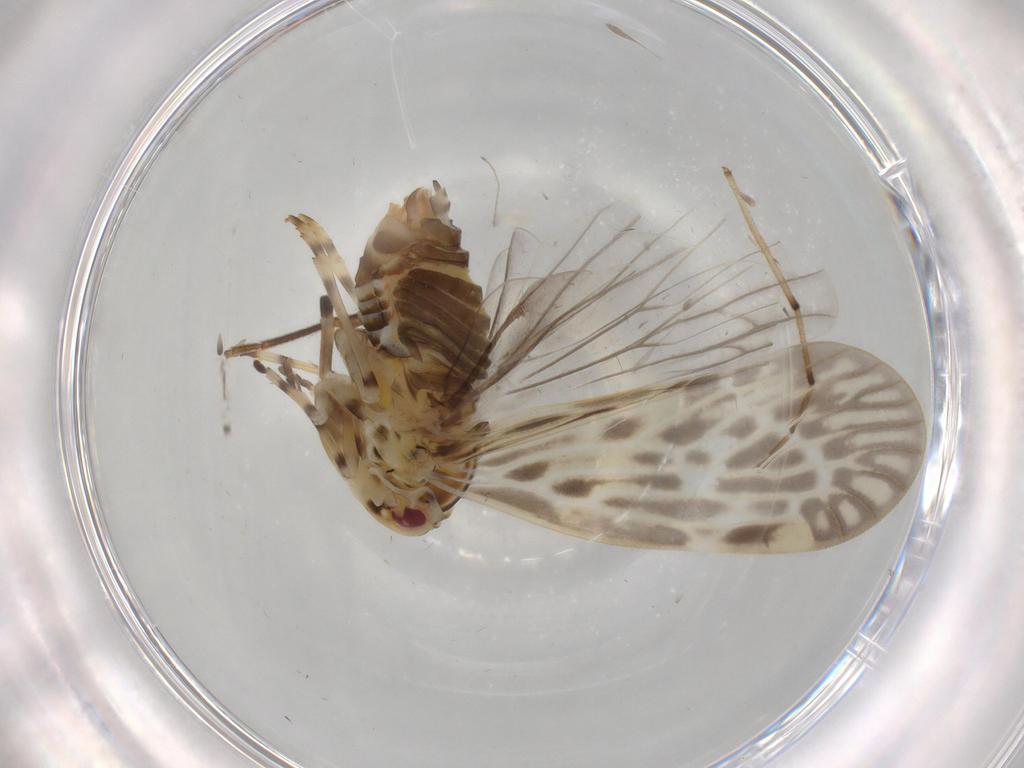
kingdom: Animalia
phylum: Arthropoda
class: Insecta
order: Hemiptera
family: Derbidae
